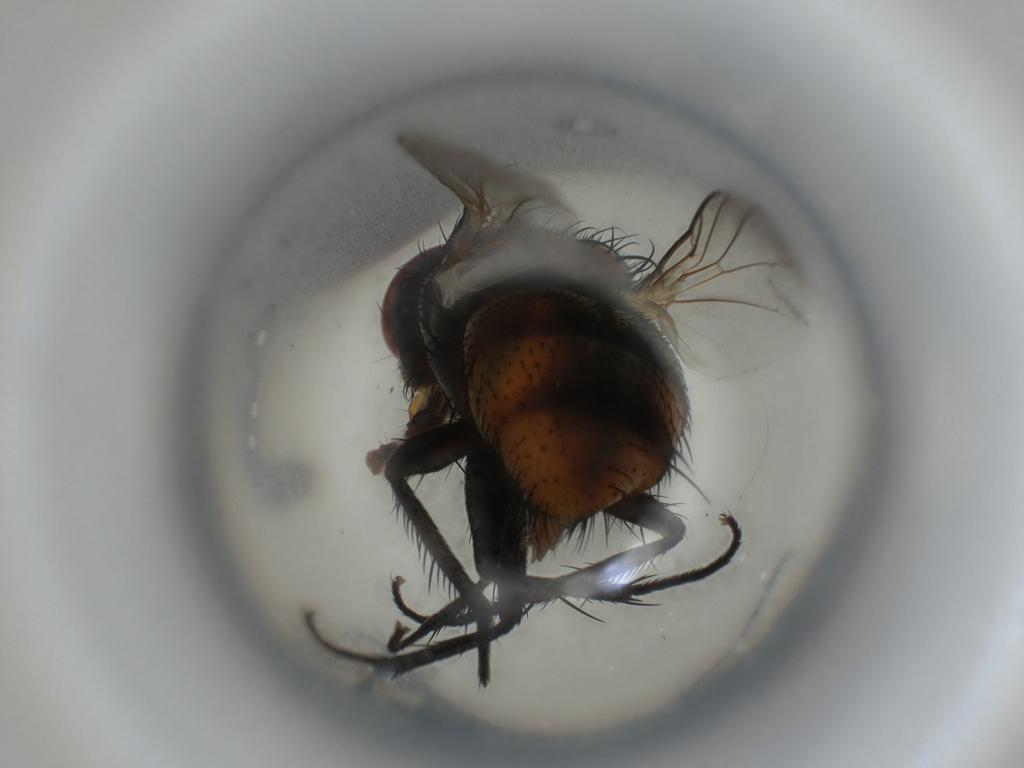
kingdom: Animalia
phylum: Arthropoda
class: Insecta
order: Diptera
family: Tachinidae
